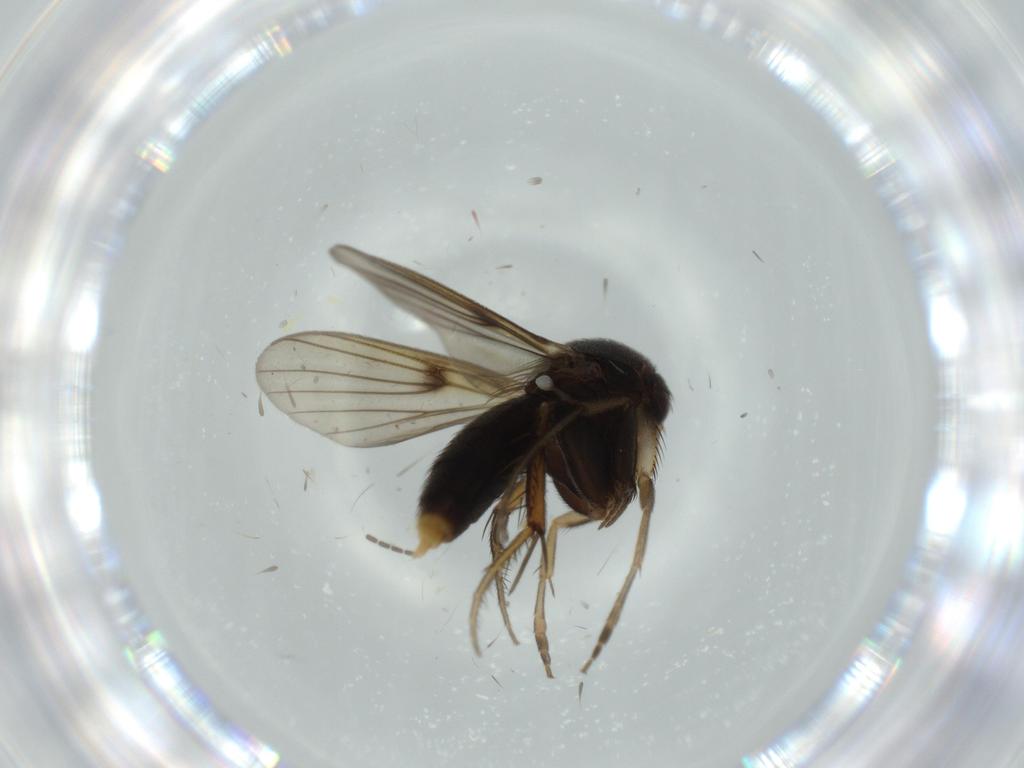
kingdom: Animalia
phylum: Arthropoda
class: Insecta
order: Diptera
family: Mycetophilidae
